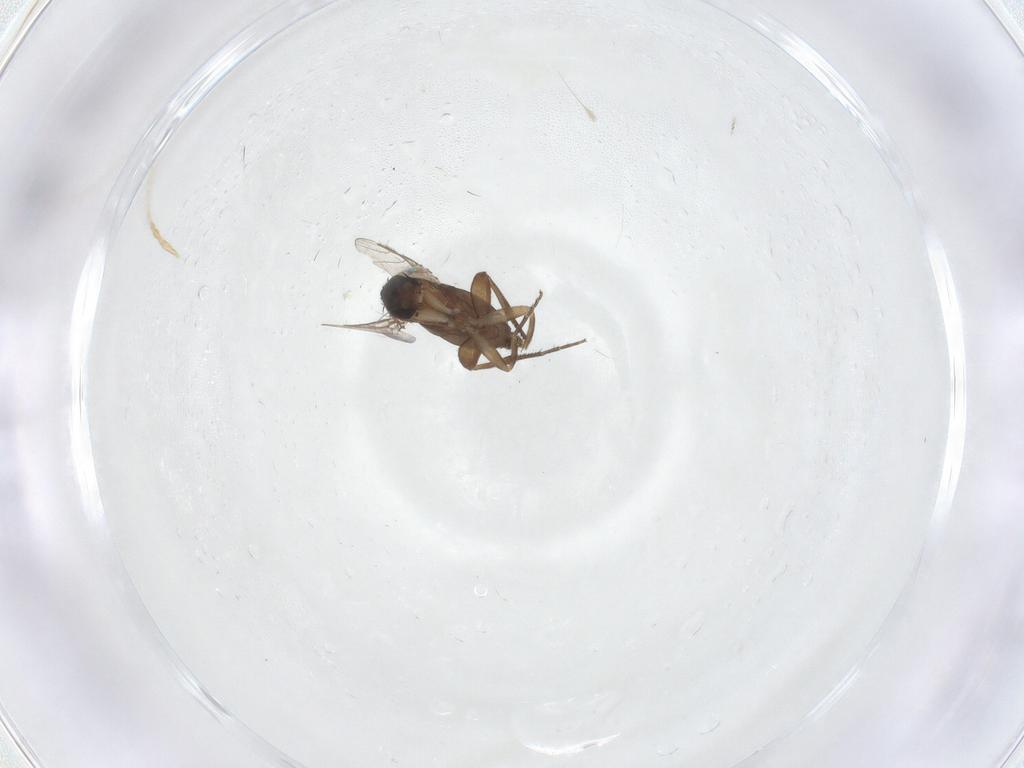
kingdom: Animalia
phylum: Arthropoda
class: Insecta
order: Diptera
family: Phoridae
